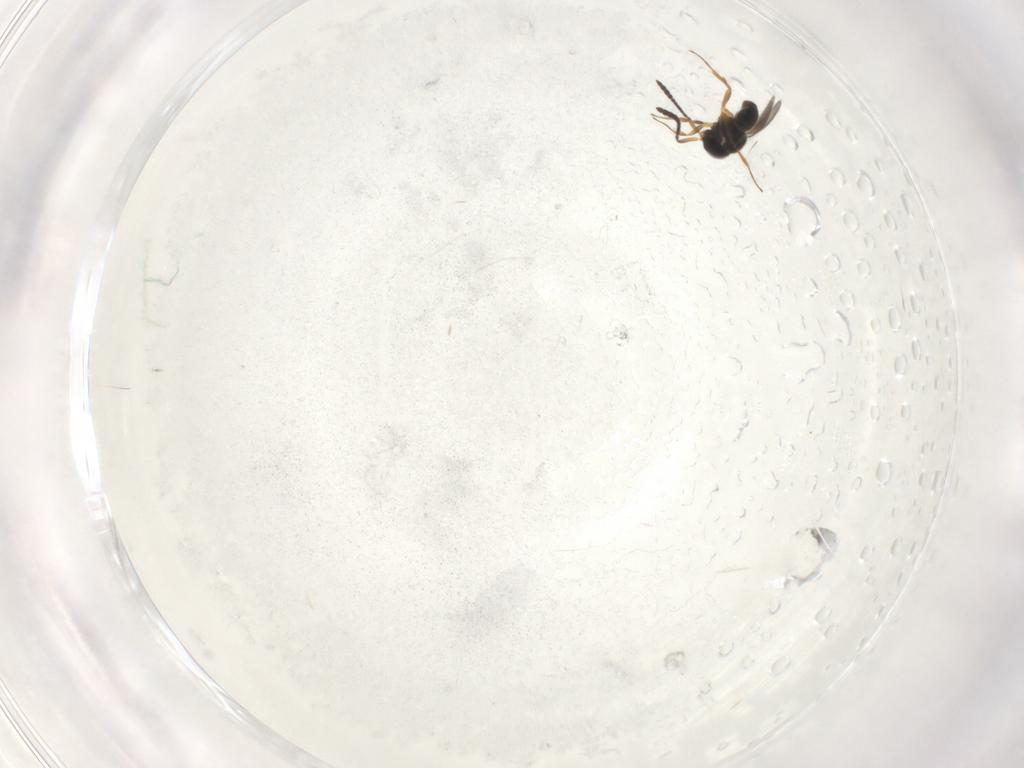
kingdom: Animalia
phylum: Arthropoda
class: Insecta
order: Hymenoptera
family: Scelionidae
